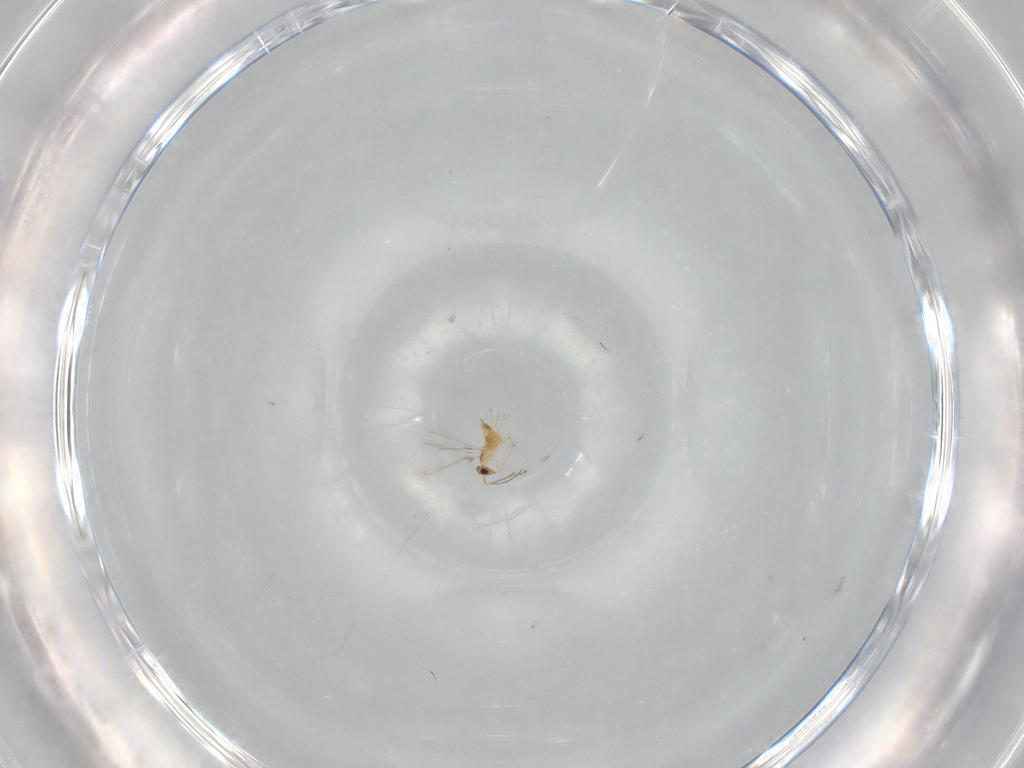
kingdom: Animalia
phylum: Arthropoda
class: Insecta
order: Hymenoptera
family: Mymaridae
